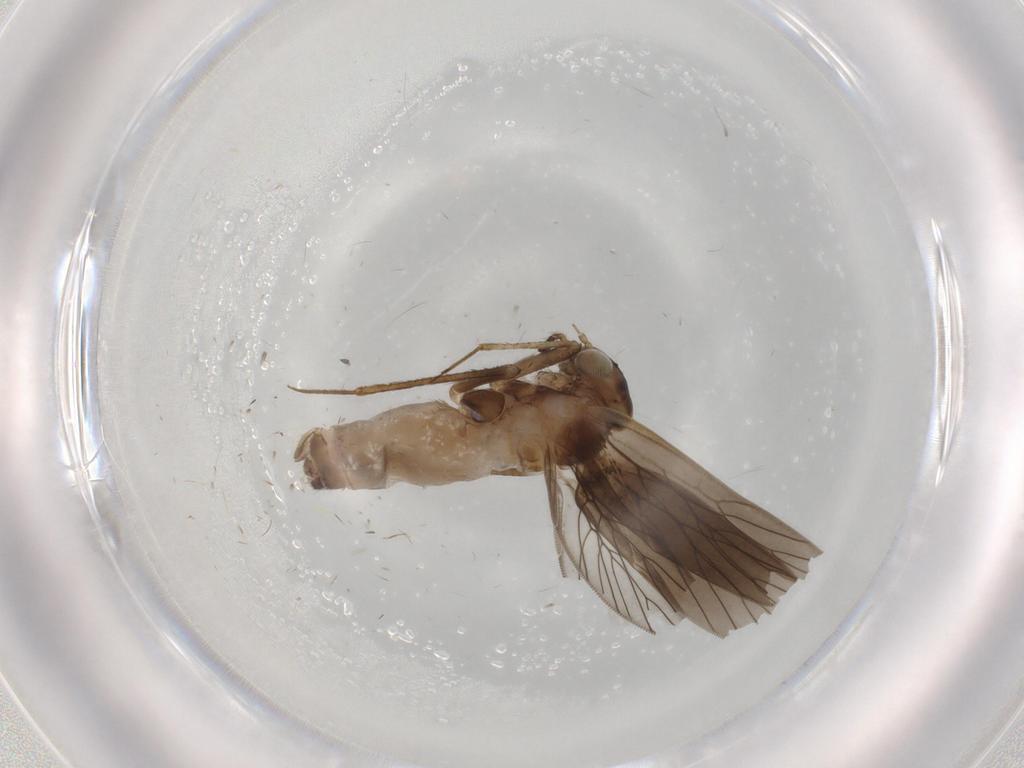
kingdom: Animalia
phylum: Arthropoda
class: Insecta
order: Psocodea
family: Lepidopsocidae
